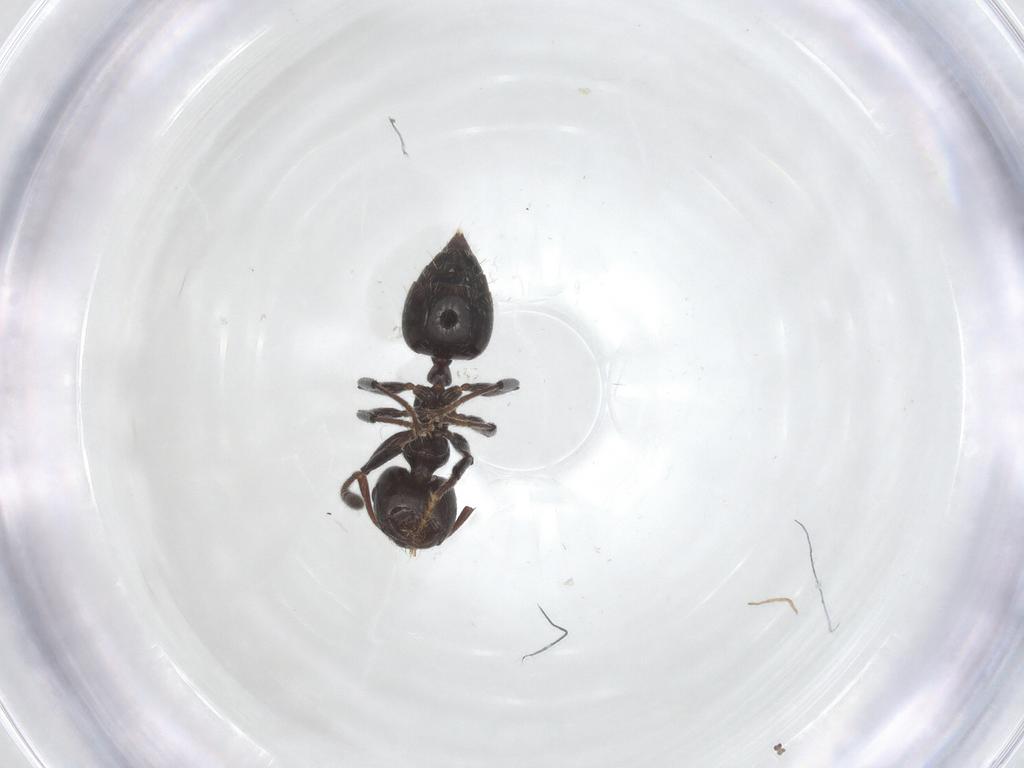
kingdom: Animalia
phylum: Arthropoda
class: Insecta
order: Hymenoptera
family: Formicidae
